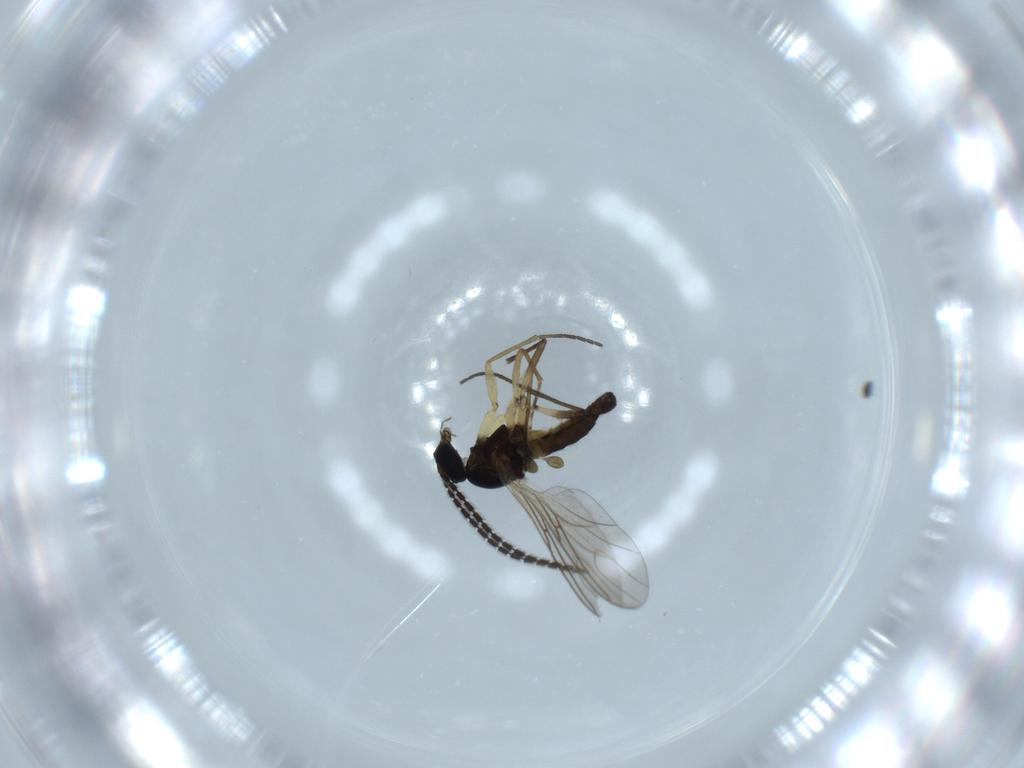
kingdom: Animalia
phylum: Arthropoda
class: Insecta
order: Diptera
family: Sciaridae
